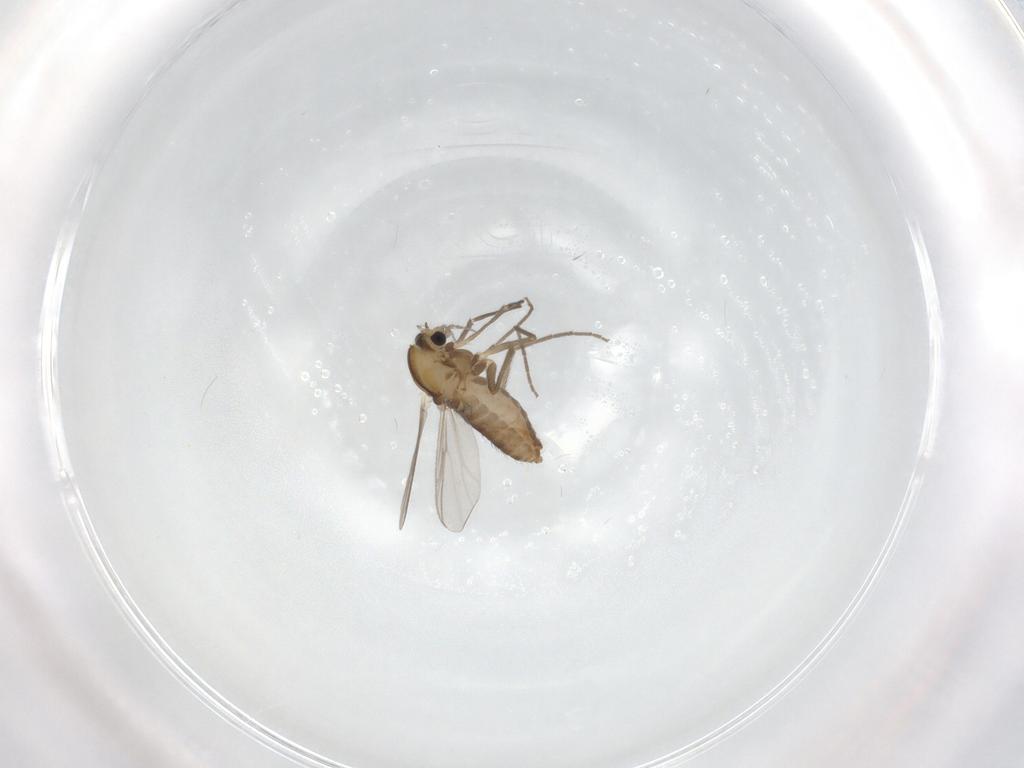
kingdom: Animalia
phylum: Arthropoda
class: Insecta
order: Diptera
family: Chironomidae
